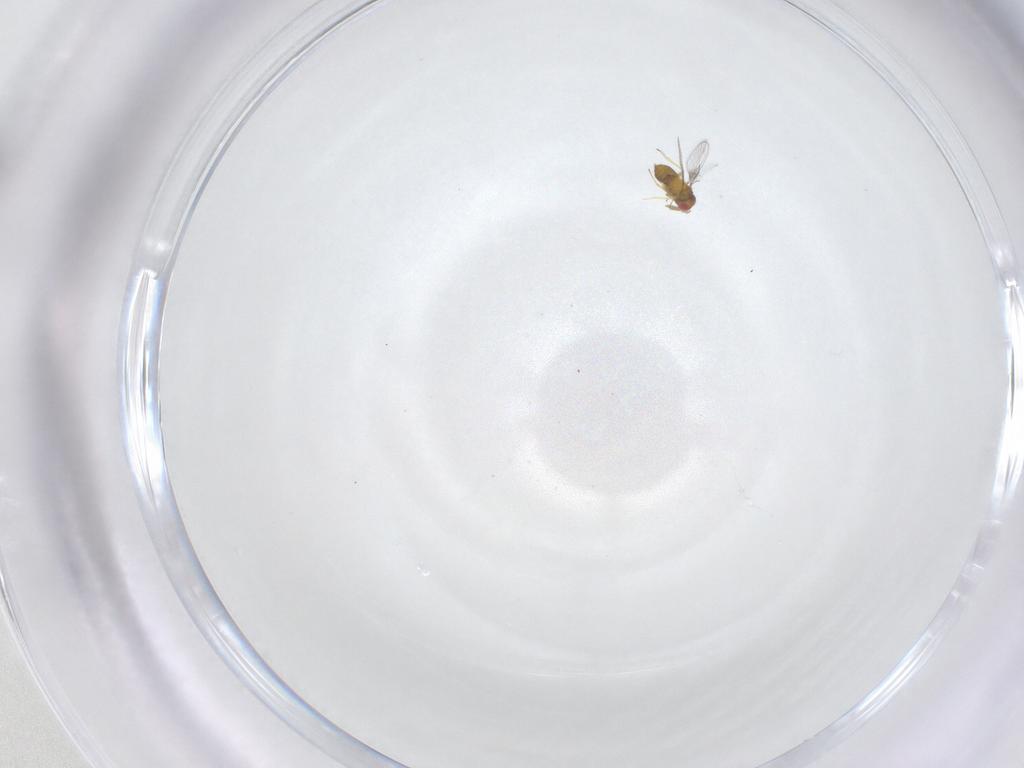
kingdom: Animalia
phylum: Arthropoda
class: Insecta
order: Hymenoptera
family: Trichogrammatidae
